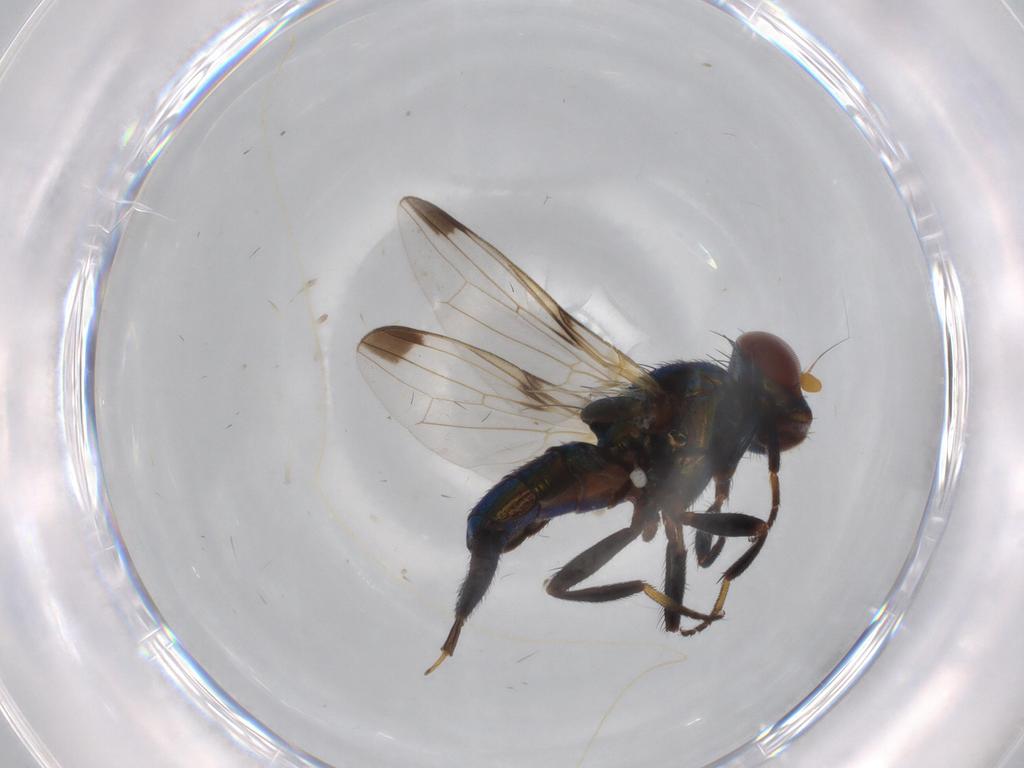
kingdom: Animalia
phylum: Arthropoda
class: Insecta
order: Diptera
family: Ulidiidae
